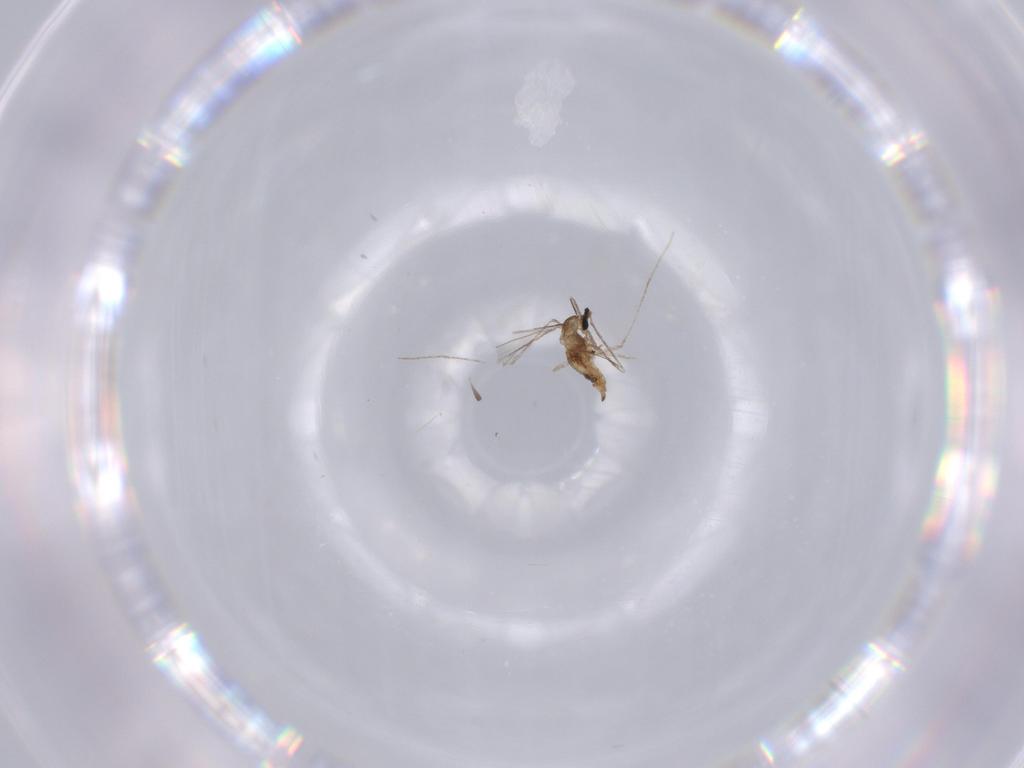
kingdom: Animalia
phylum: Arthropoda
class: Insecta
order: Diptera
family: Cecidomyiidae
